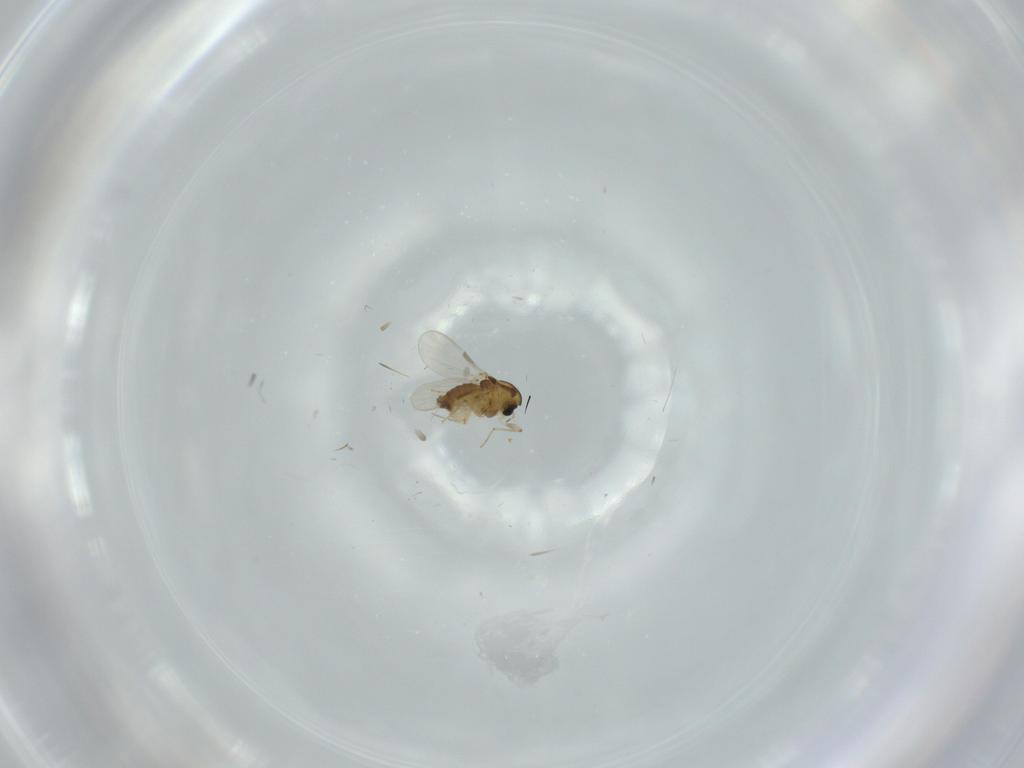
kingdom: Animalia
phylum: Arthropoda
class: Insecta
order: Diptera
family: Chironomidae
